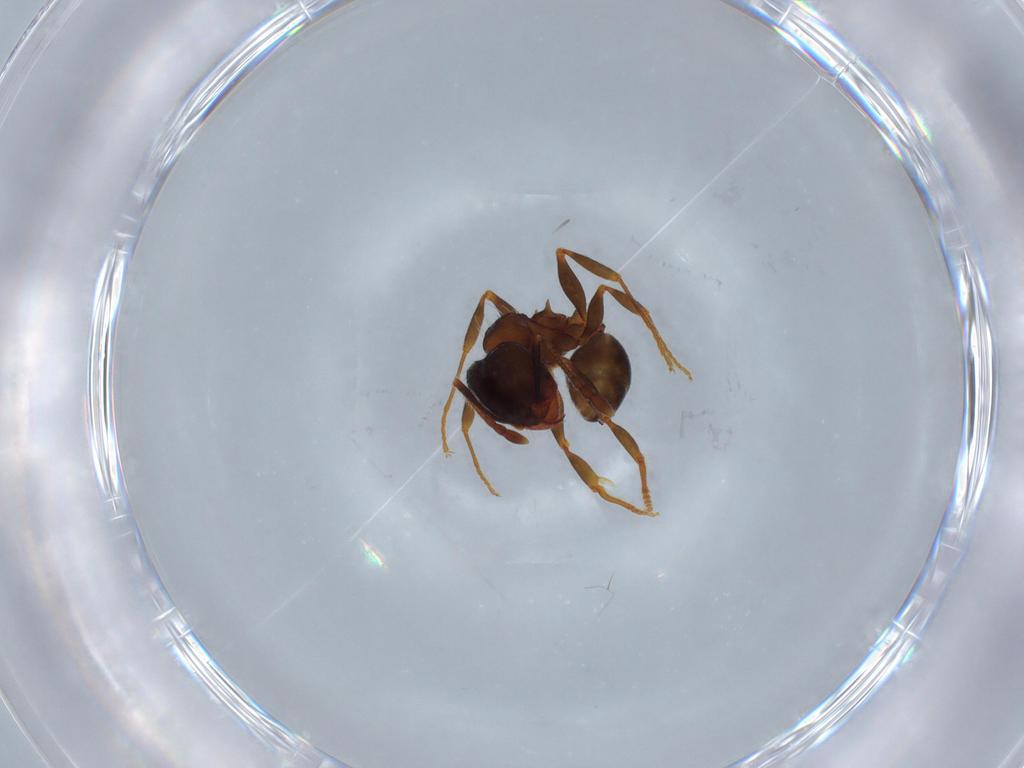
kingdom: Animalia
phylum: Arthropoda
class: Insecta
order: Hymenoptera
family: Formicidae
